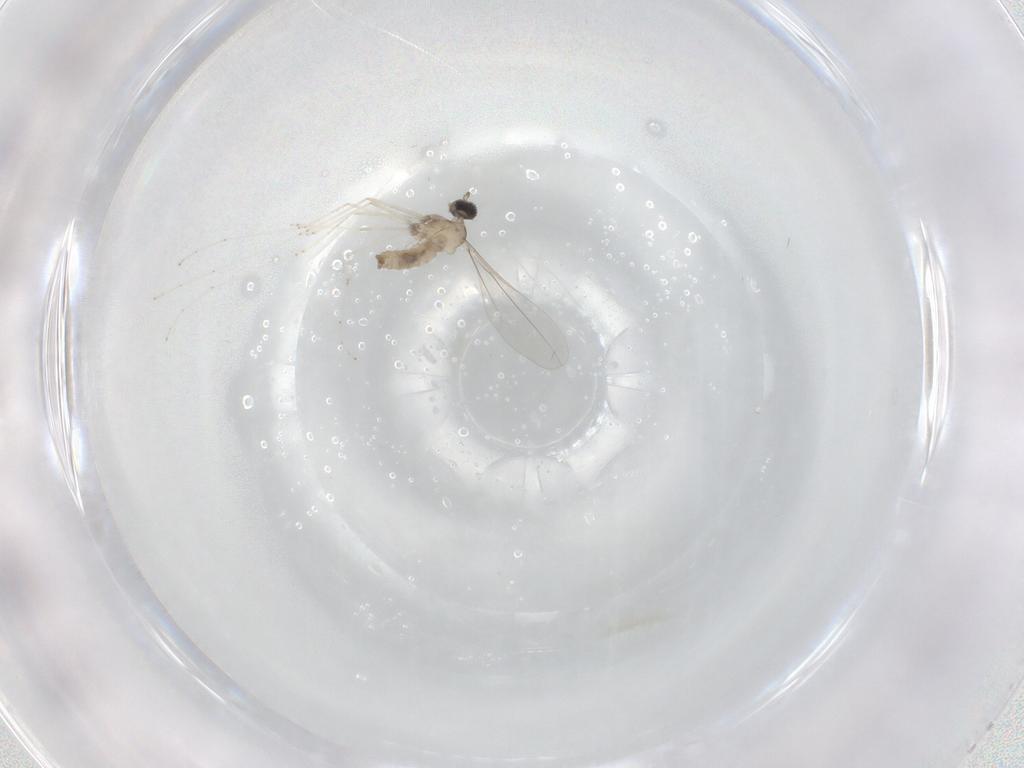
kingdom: Animalia
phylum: Arthropoda
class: Insecta
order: Diptera
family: Cecidomyiidae
